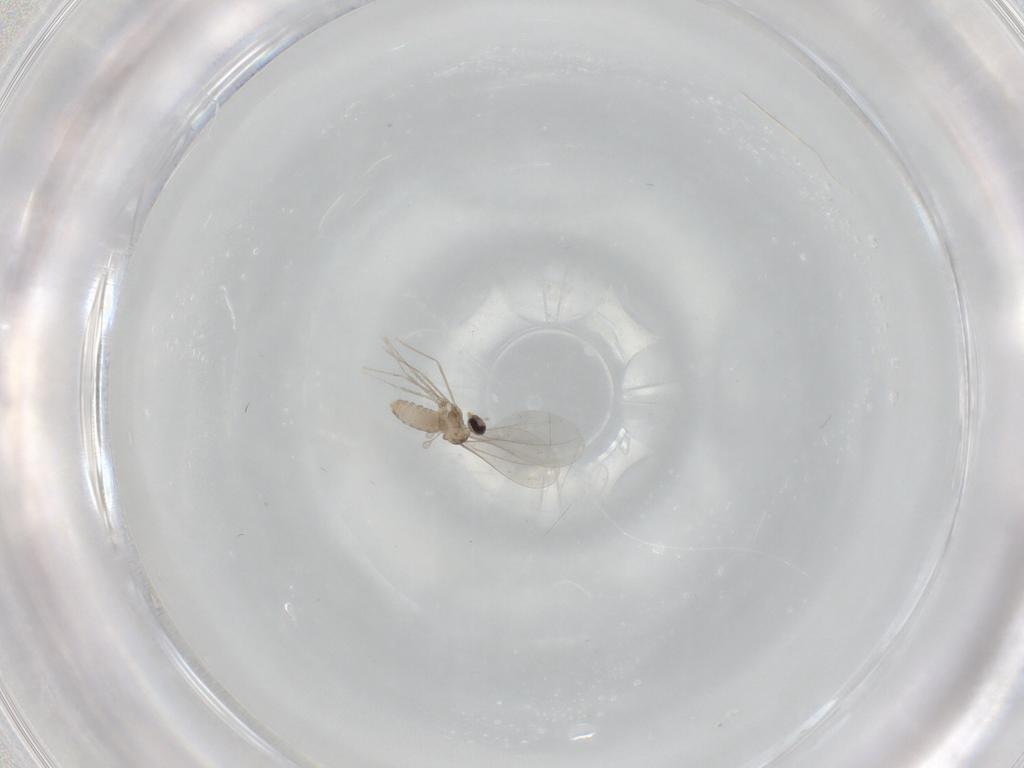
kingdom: Animalia
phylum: Arthropoda
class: Insecta
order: Diptera
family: Cecidomyiidae
